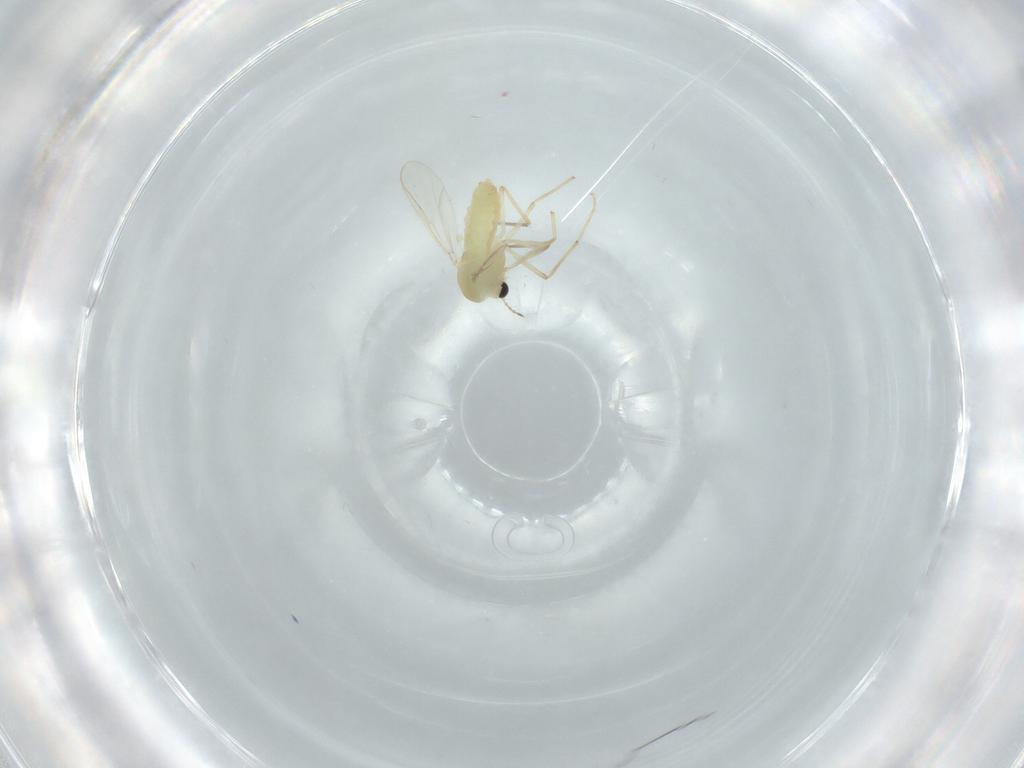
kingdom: Animalia
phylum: Arthropoda
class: Insecta
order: Diptera
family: Chironomidae
